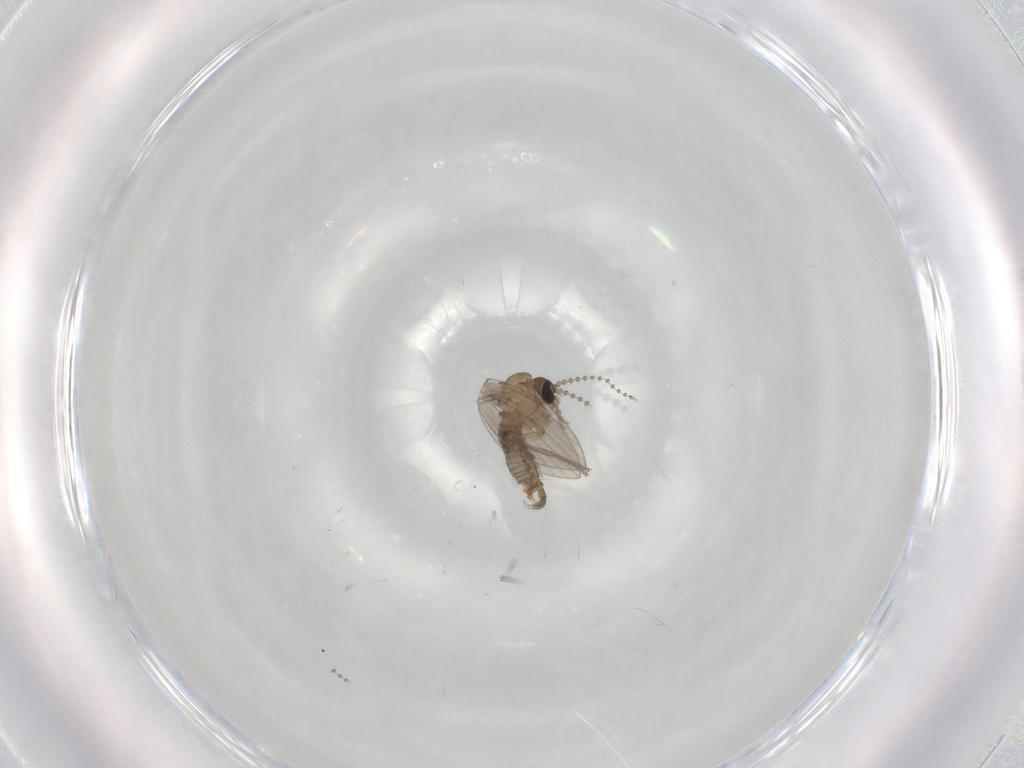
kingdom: Animalia
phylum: Arthropoda
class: Insecta
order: Diptera
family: Psychodidae
